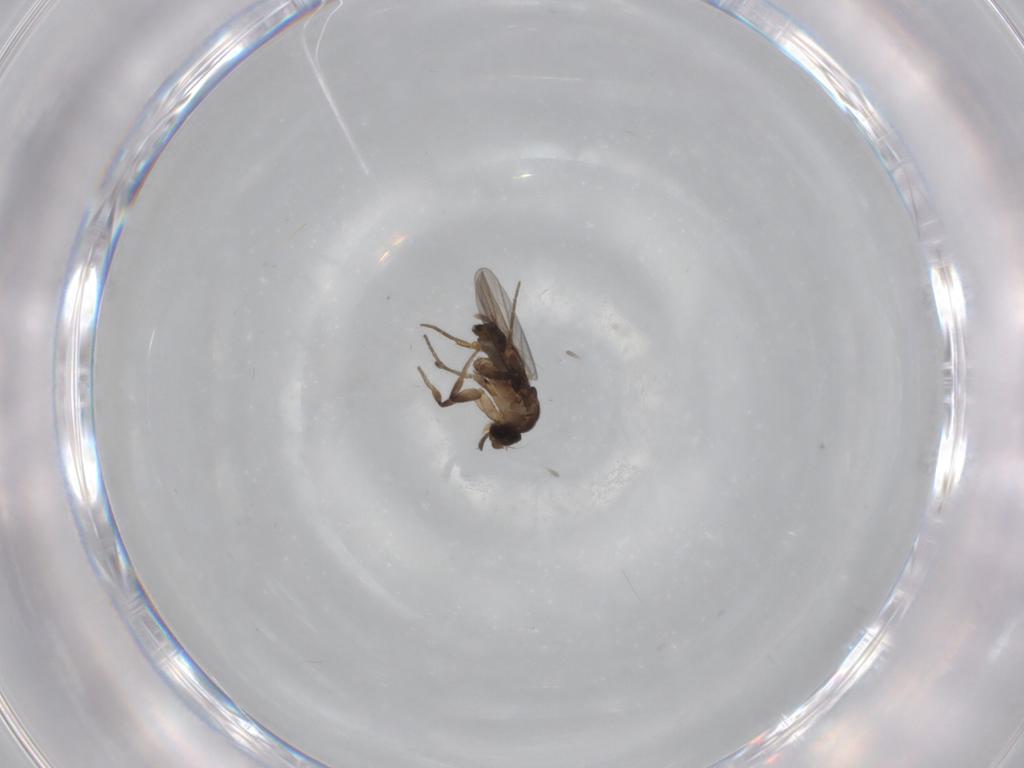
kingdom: Animalia
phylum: Arthropoda
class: Insecta
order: Diptera
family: Phoridae
